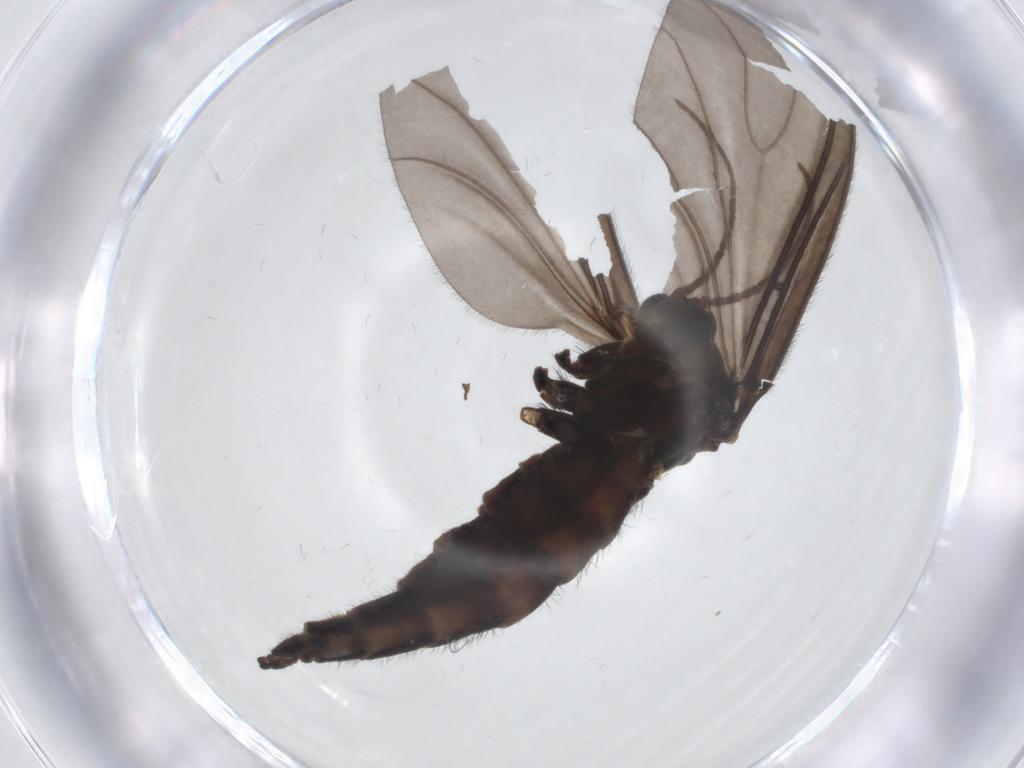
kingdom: Animalia
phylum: Arthropoda
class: Insecta
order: Diptera
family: Sciaridae
